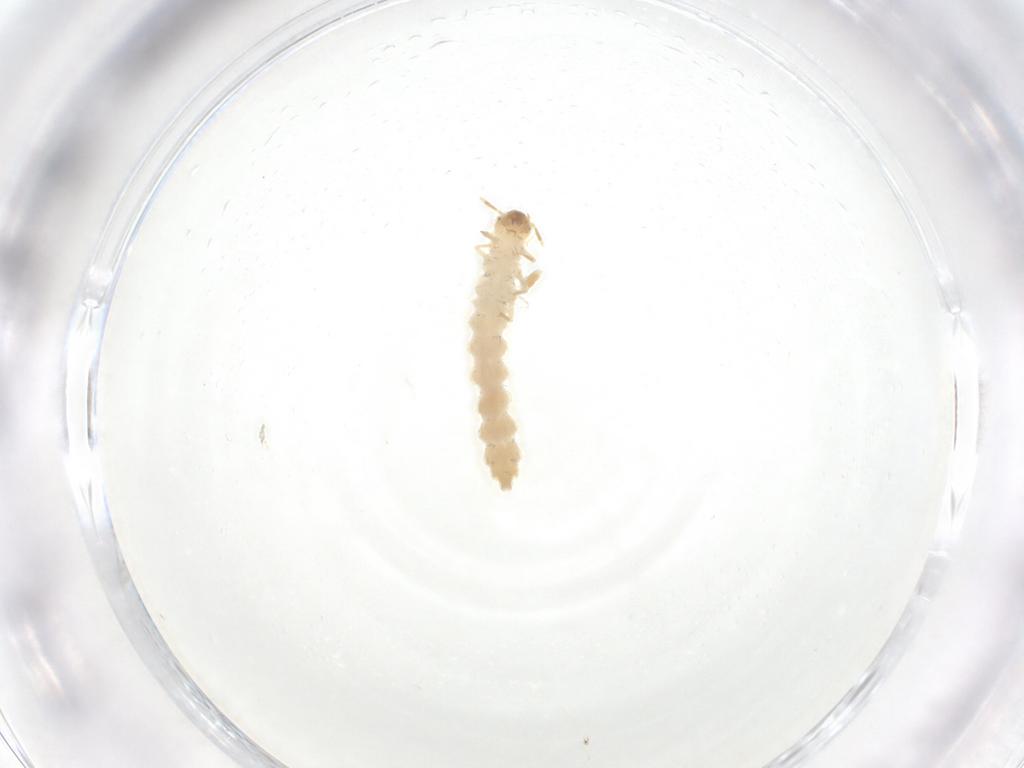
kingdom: Animalia
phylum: Arthropoda
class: Insecta
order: Coleoptera
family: Silvanidae
